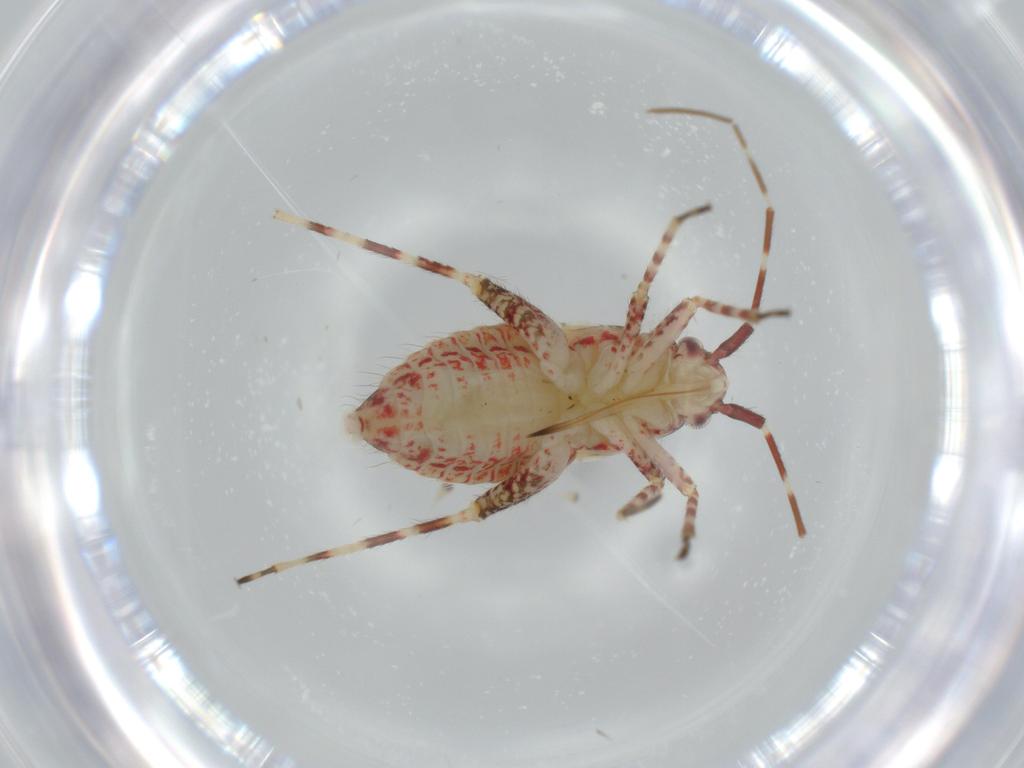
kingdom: Animalia
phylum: Arthropoda
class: Insecta
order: Hemiptera
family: Miridae
